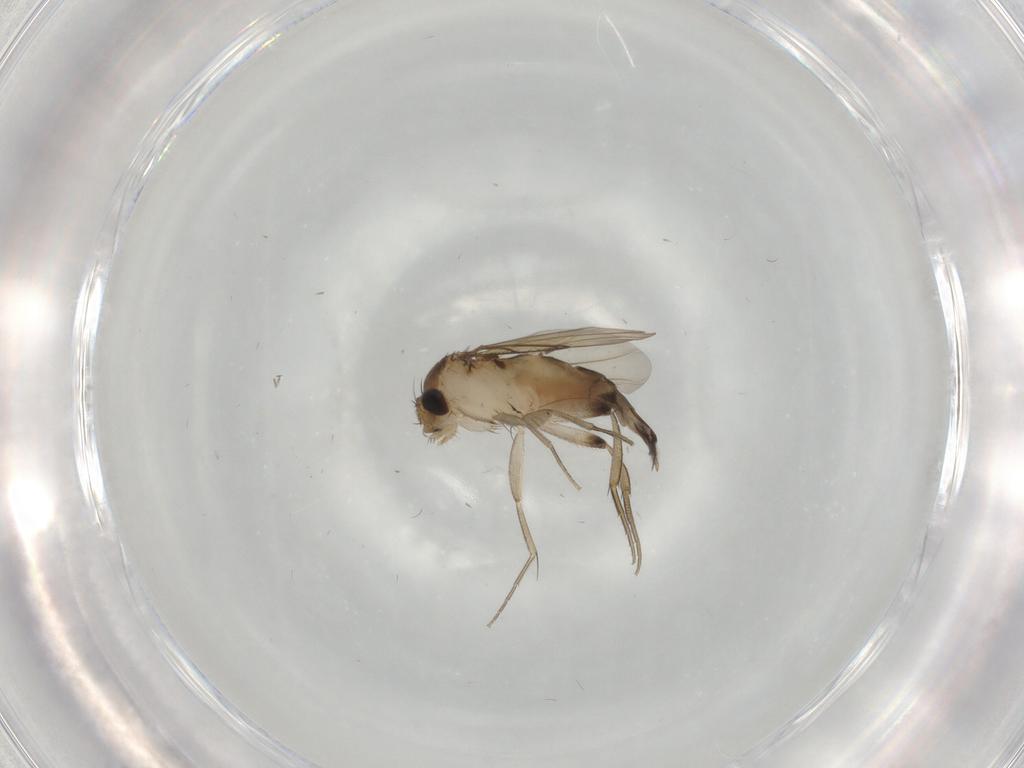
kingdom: Animalia
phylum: Arthropoda
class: Insecta
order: Diptera
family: Phoridae
